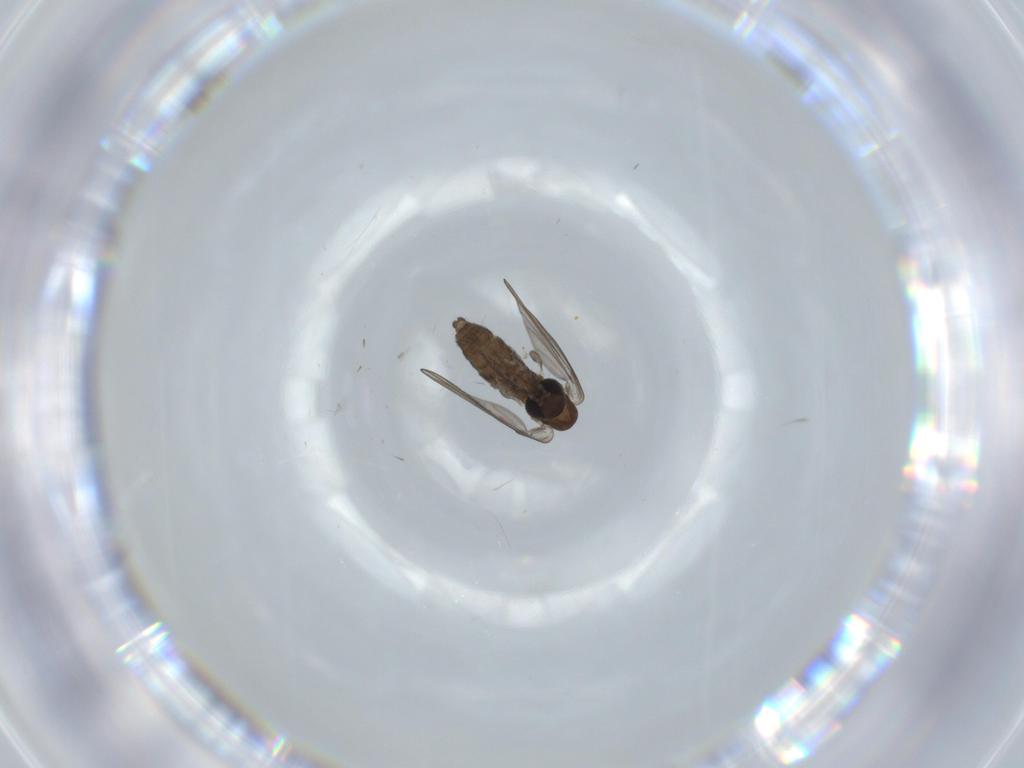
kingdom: Animalia
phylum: Arthropoda
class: Insecta
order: Diptera
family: Psychodidae
